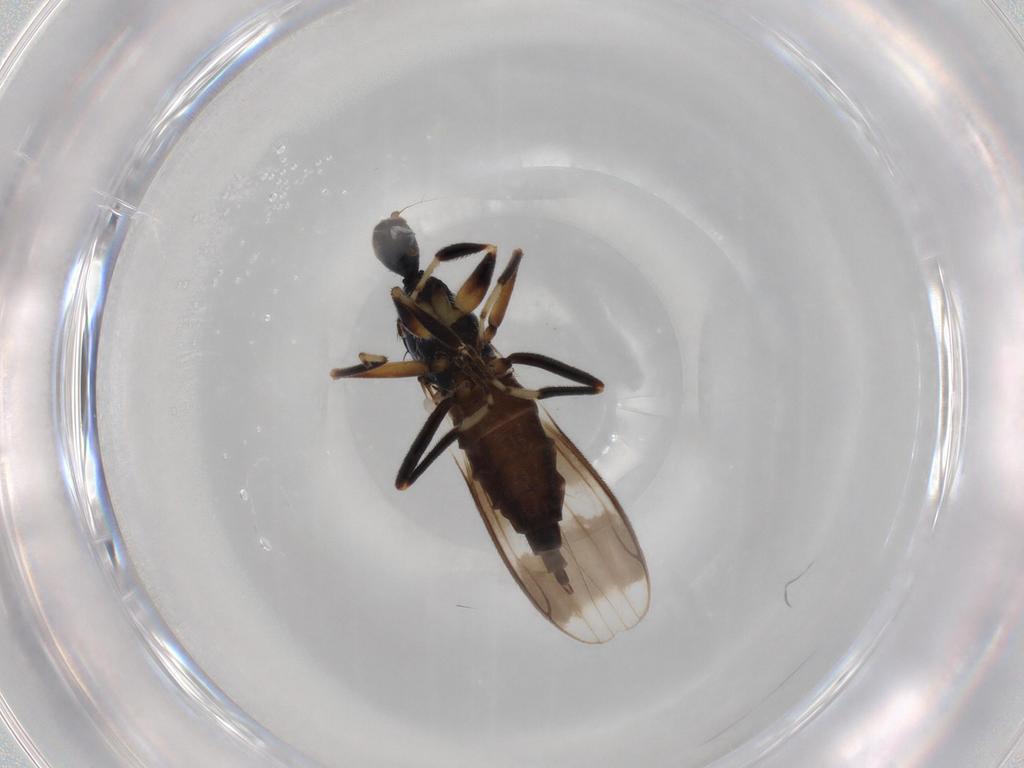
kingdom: Animalia
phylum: Arthropoda
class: Insecta
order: Diptera
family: Hybotidae
